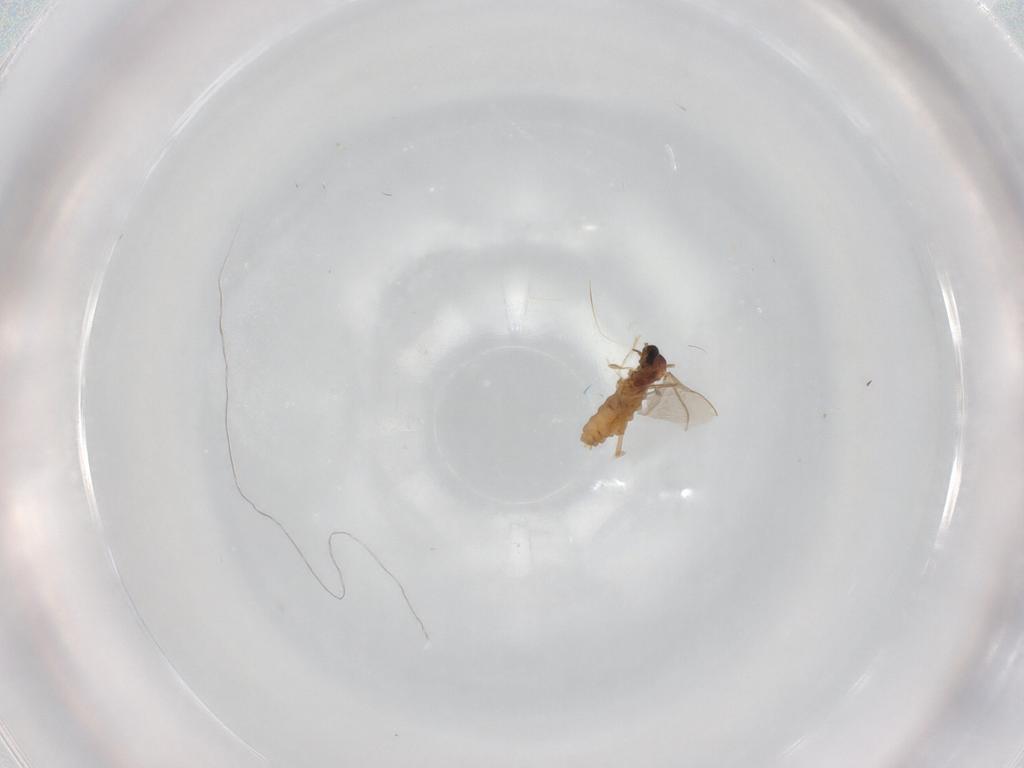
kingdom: Animalia
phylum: Arthropoda
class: Insecta
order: Diptera
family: Cecidomyiidae
